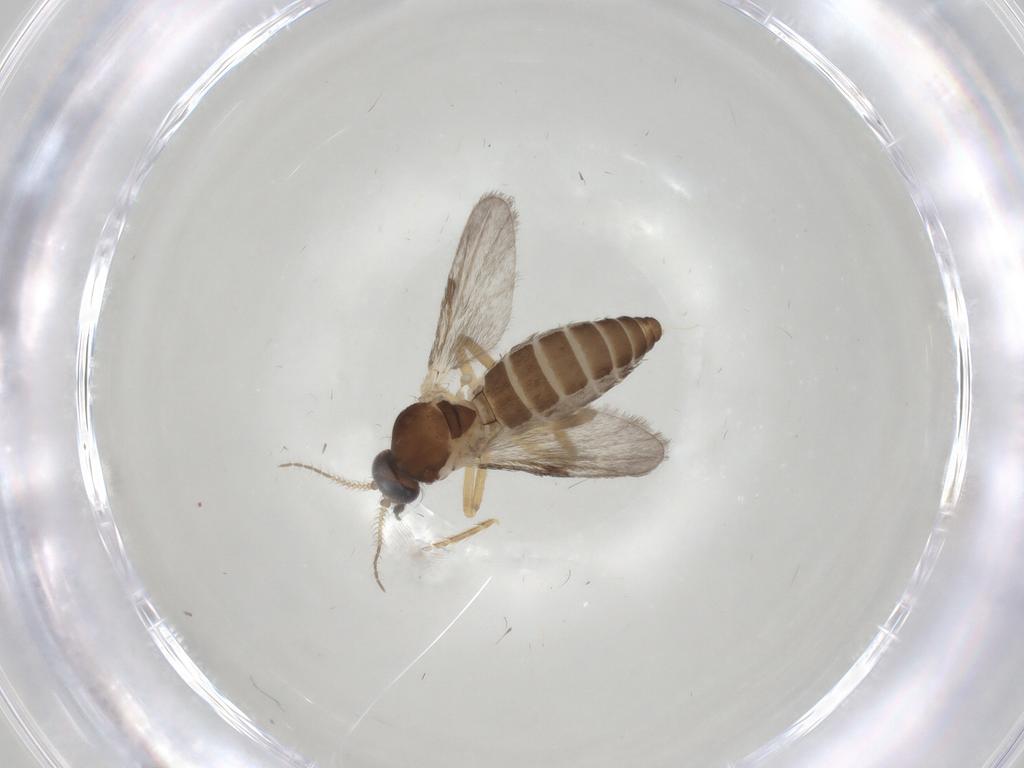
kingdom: Animalia
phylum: Arthropoda
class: Insecta
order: Diptera
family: Ceratopogonidae
